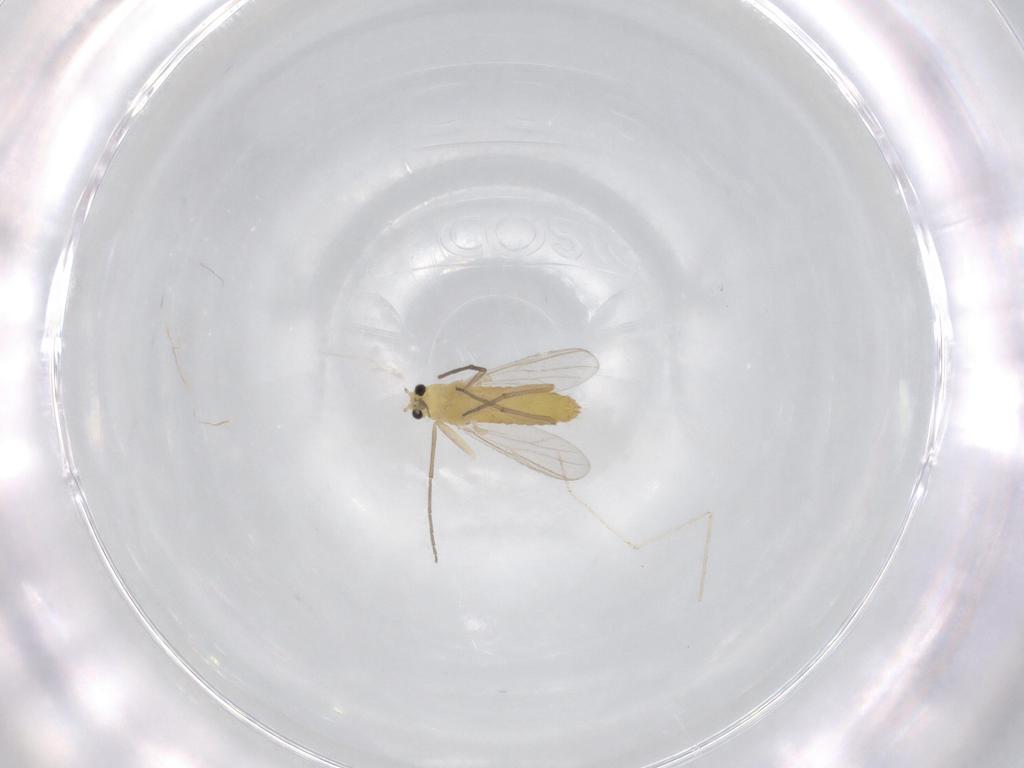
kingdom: Animalia
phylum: Arthropoda
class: Insecta
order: Diptera
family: Chironomidae
